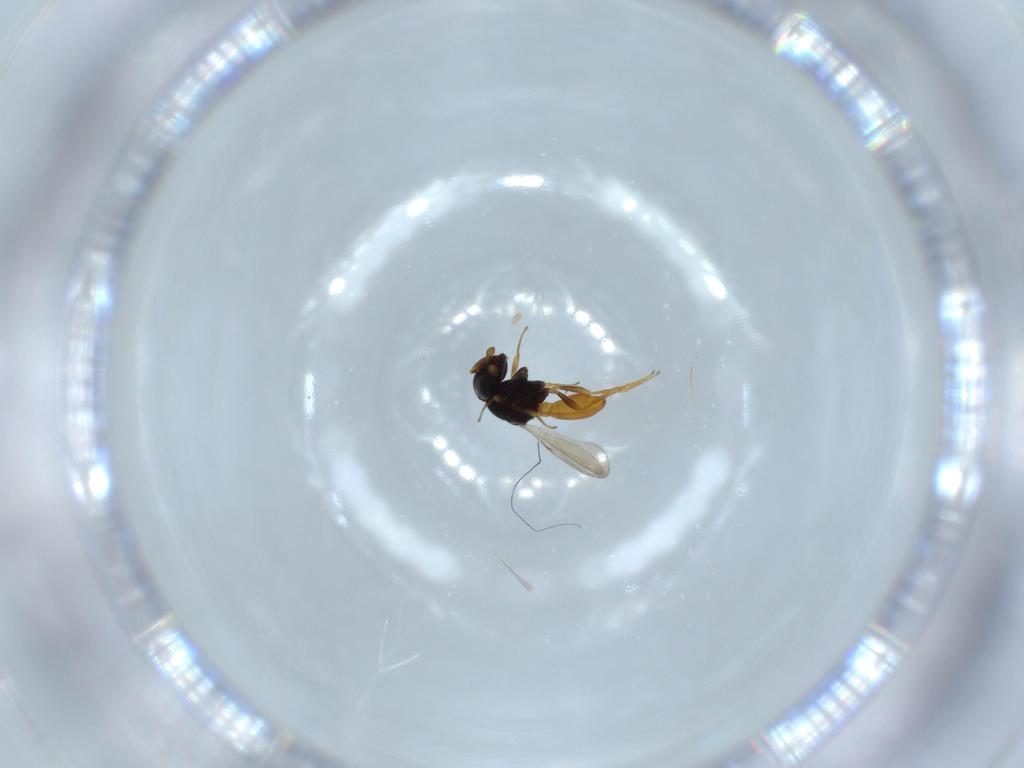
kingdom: Animalia
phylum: Arthropoda
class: Insecta
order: Hymenoptera
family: Scelionidae
